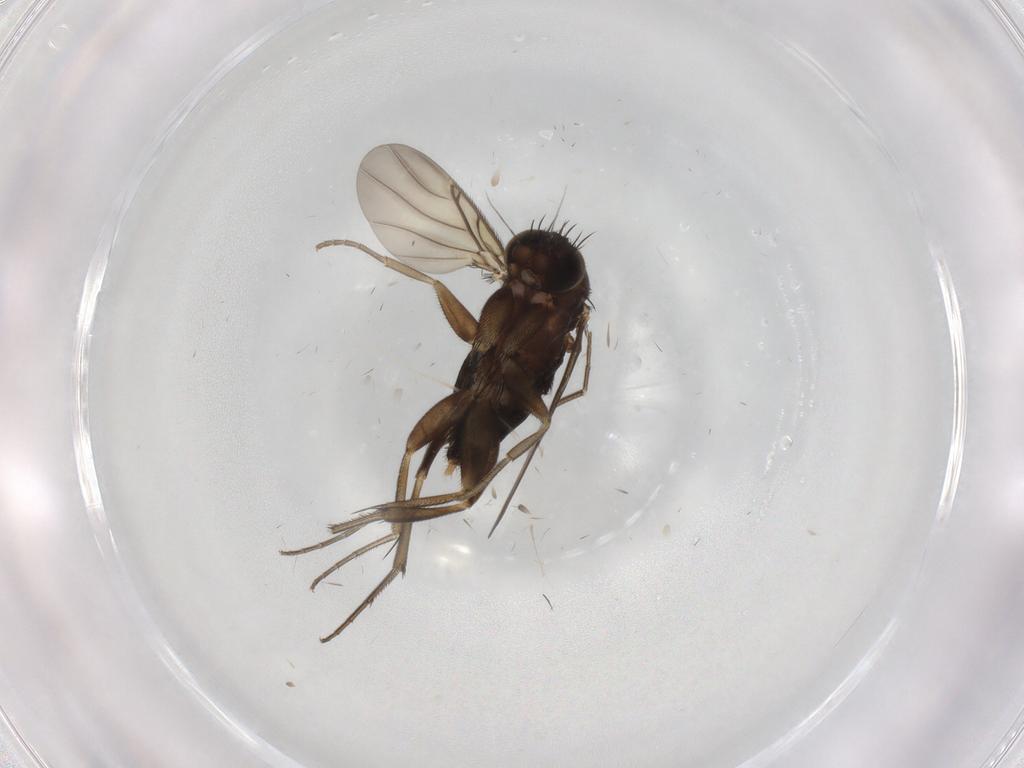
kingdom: Animalia
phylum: Arthropoda
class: Insecta
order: Diptera
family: Phoridae
